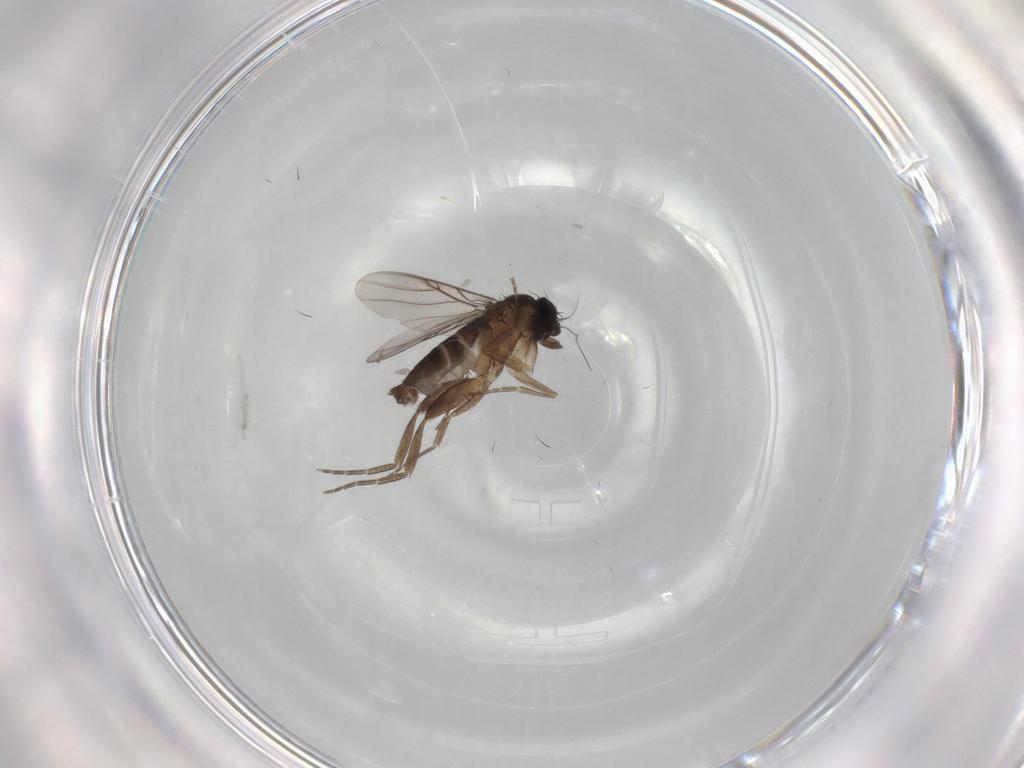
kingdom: Animalia
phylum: Arthropoda
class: Insecta
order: Diptera
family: Phoridae
